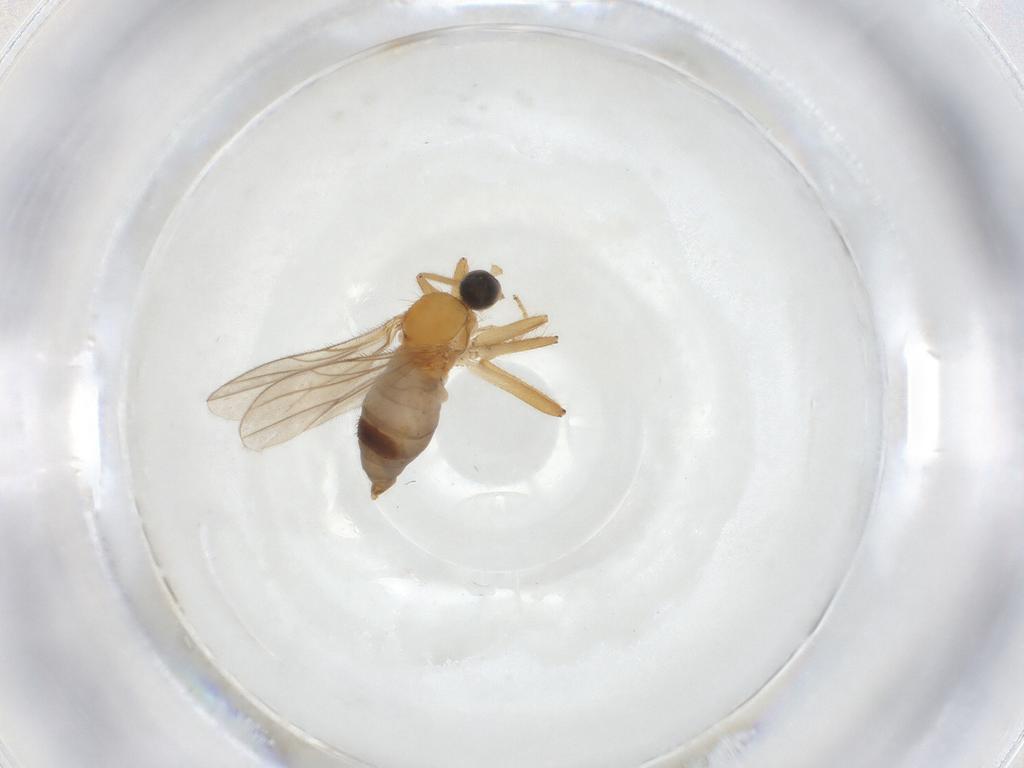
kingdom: Animalia
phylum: Arthropoda
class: Insecta
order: Diptera
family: Hybotidae
